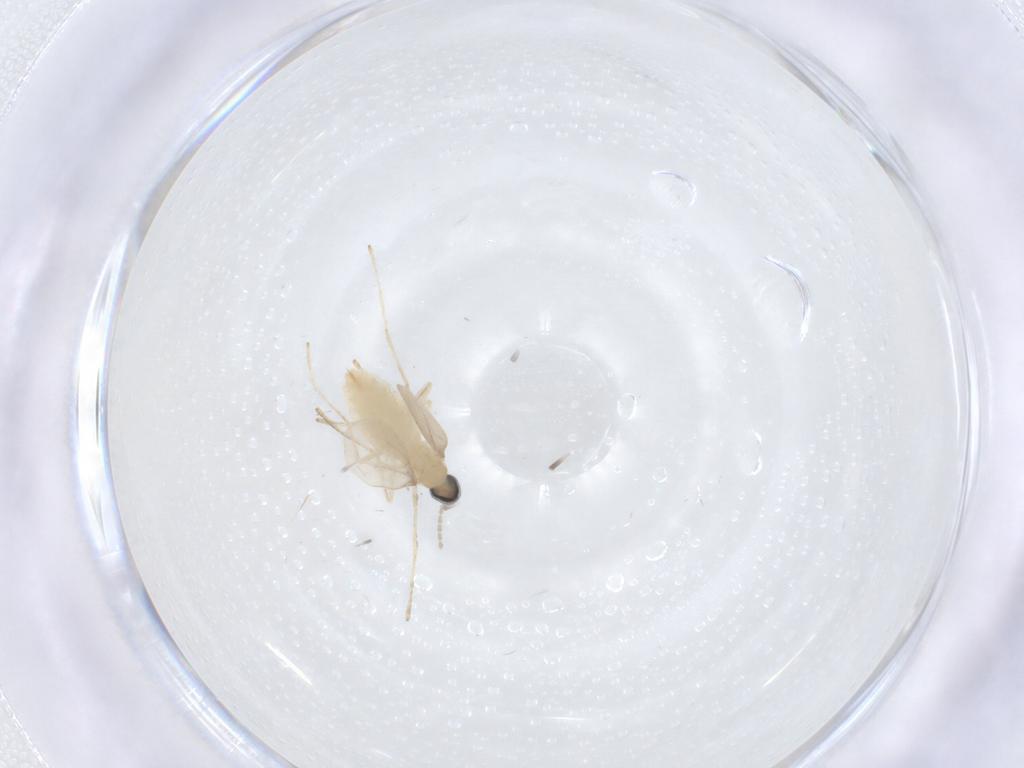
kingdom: Animalia
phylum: Arthropoda
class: Insecta
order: Diptera
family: Cecidomyiidae
